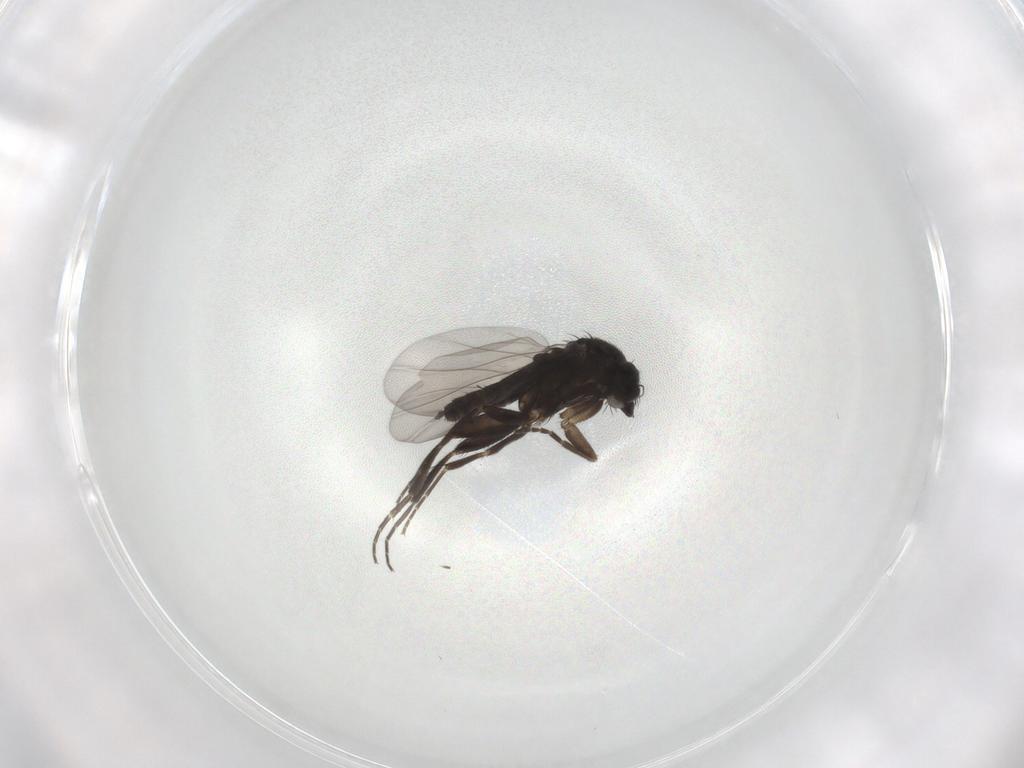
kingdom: Animalia
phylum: Arthropoda
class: Insecta
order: Diptera
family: Phoridae
